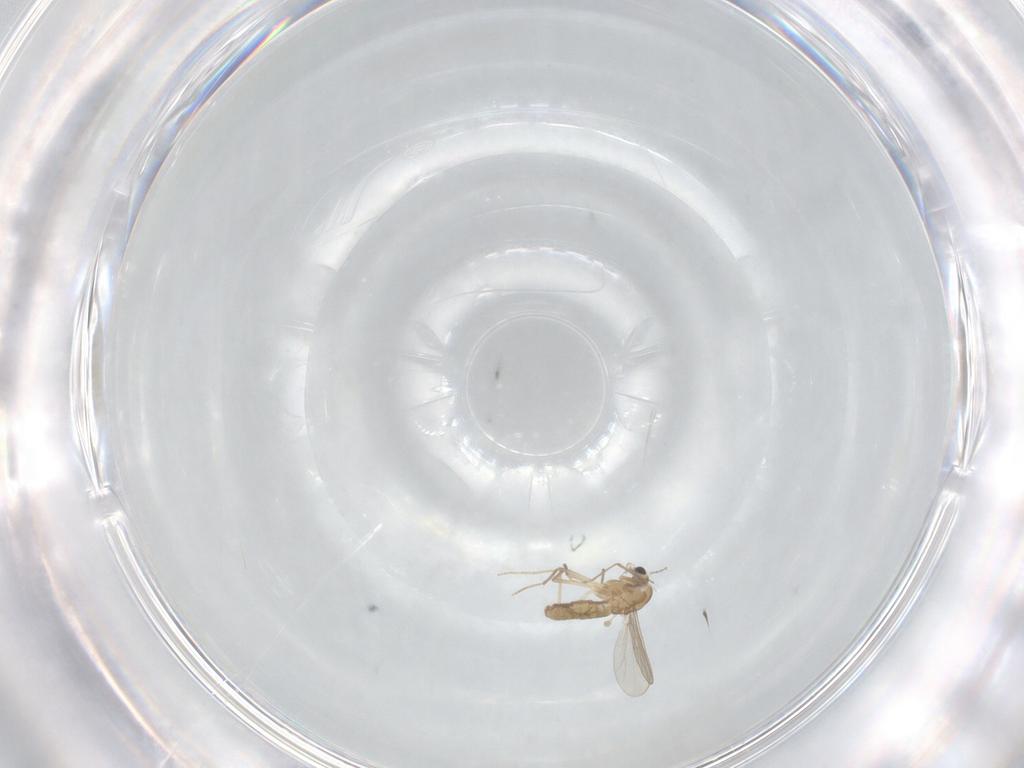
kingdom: Animalia
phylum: Arthropoda
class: Insecta
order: Diptera
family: Chironomidae
